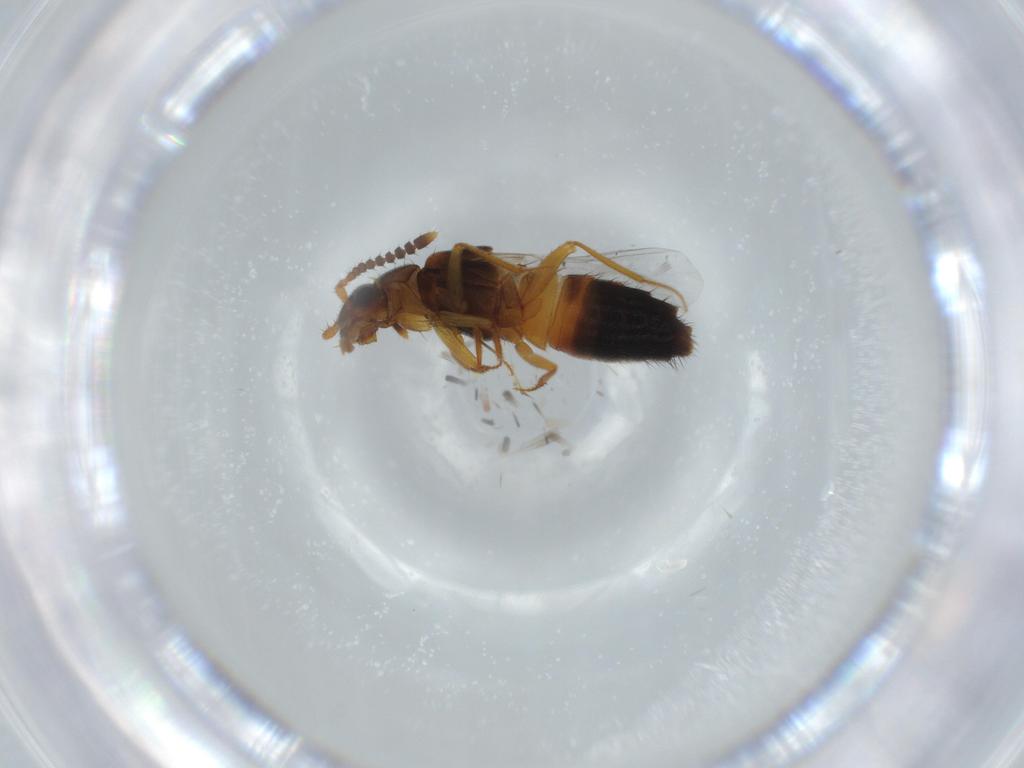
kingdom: Animalia
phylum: Arthropoda
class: Insecta
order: Coleoptera
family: Staphylinidae
